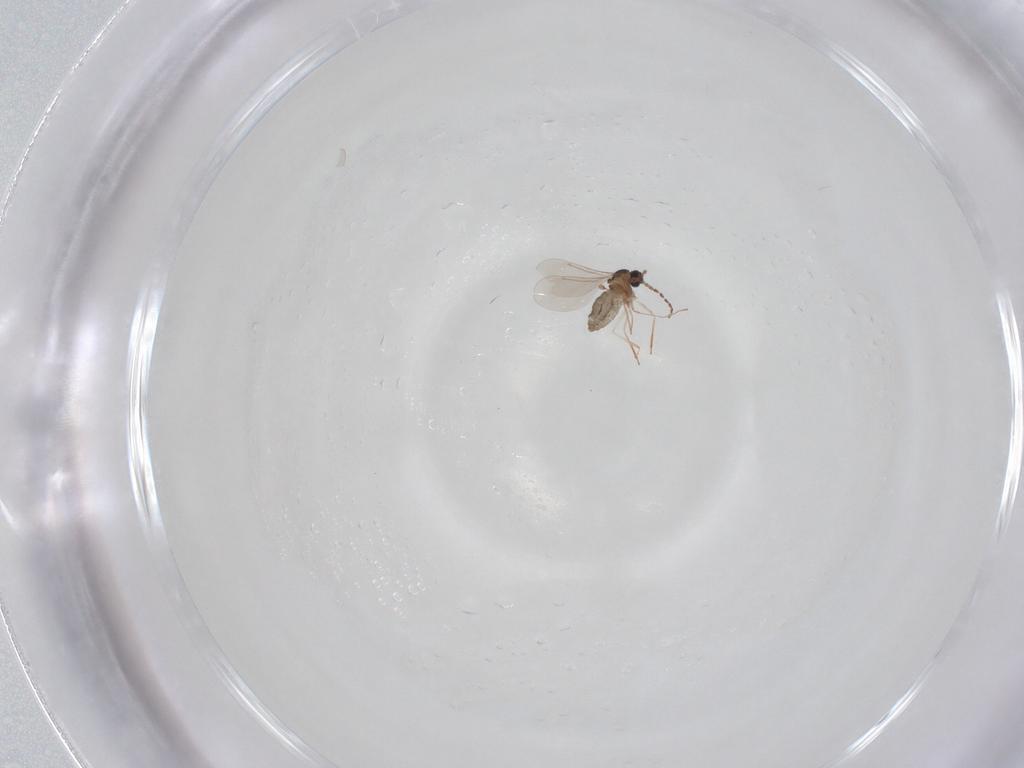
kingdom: Animalia
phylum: Arthropoda
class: Insecta
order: Diptera
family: Cecidomyiidae
